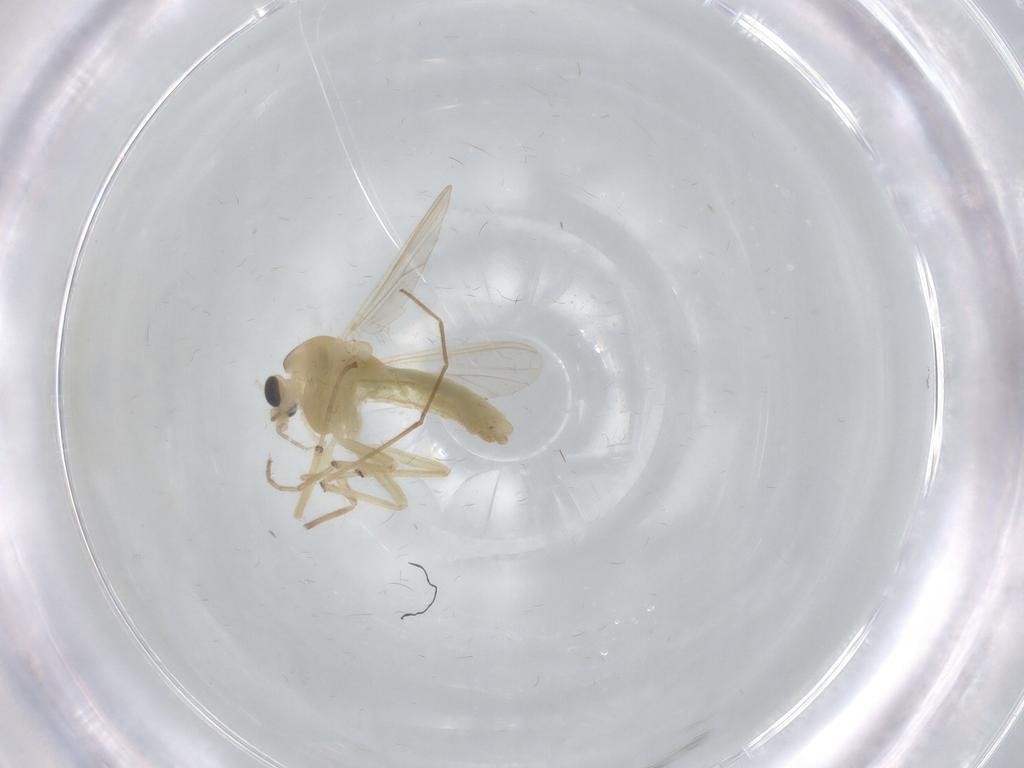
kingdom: Animalia
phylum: Arthropoda
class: Insecta
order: Diptera
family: Chironomidae
